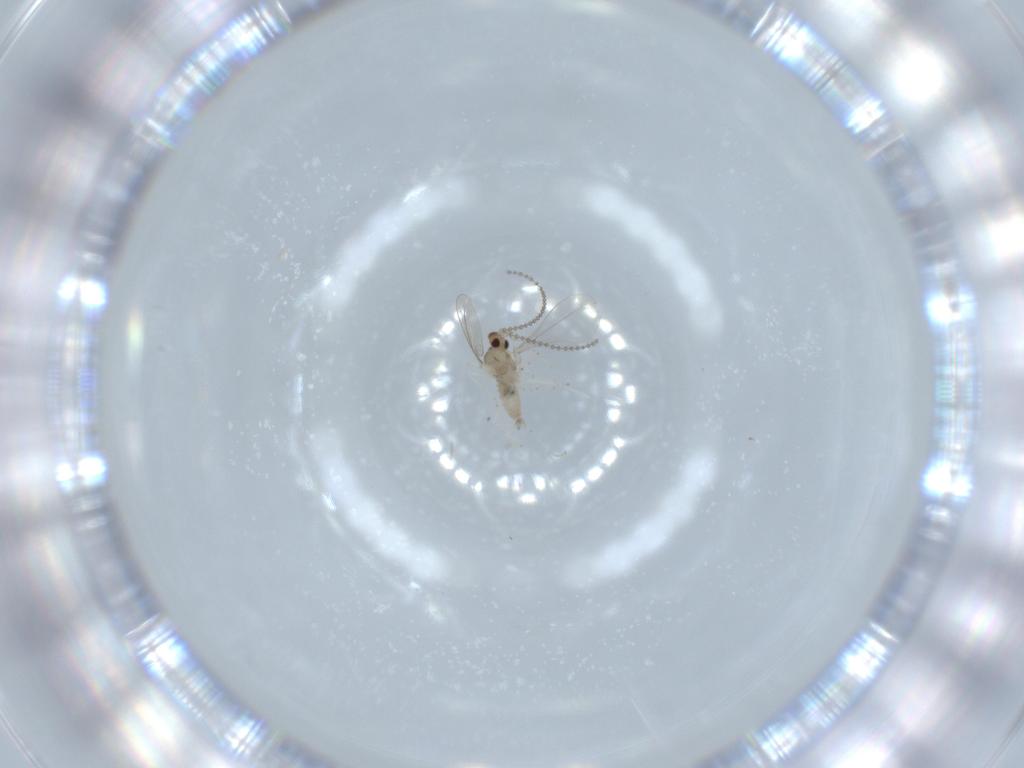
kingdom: Animalia
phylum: Arthropoda
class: Insecta
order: Diptera
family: Cecidomyiidae
